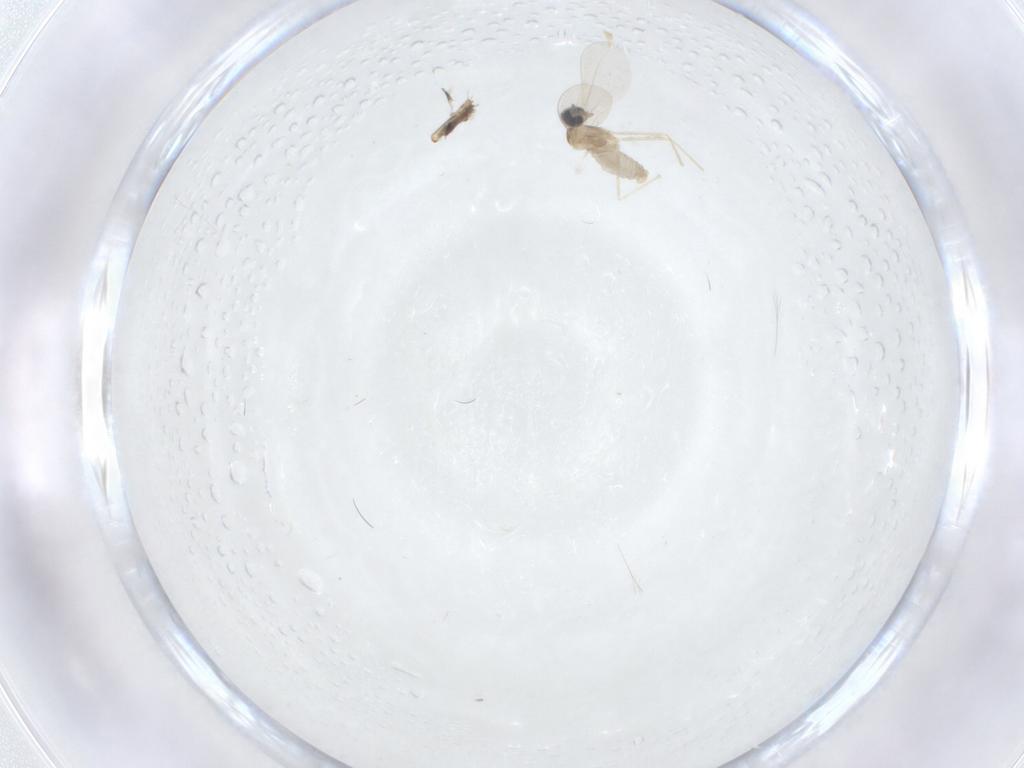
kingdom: Animalia
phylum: Arthropoda
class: Insecta
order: Diptera
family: Cecidomyiidae
